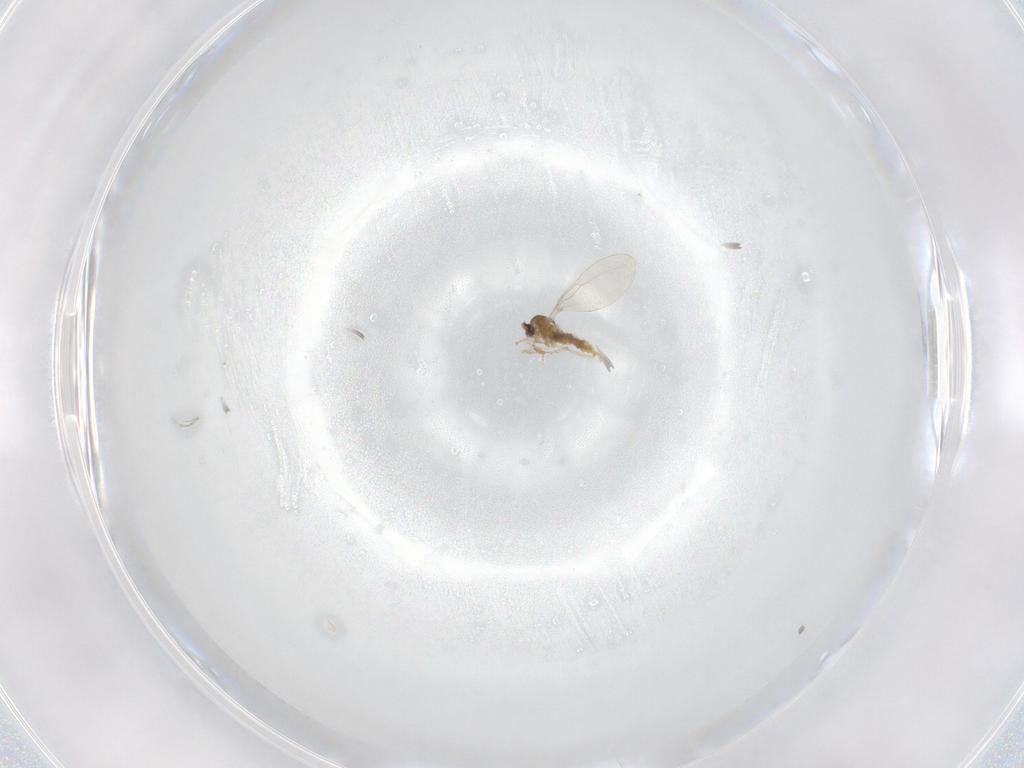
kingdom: Animalia
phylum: Arthropoda
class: Insecta
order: Diptera
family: Cecidomyiidae
